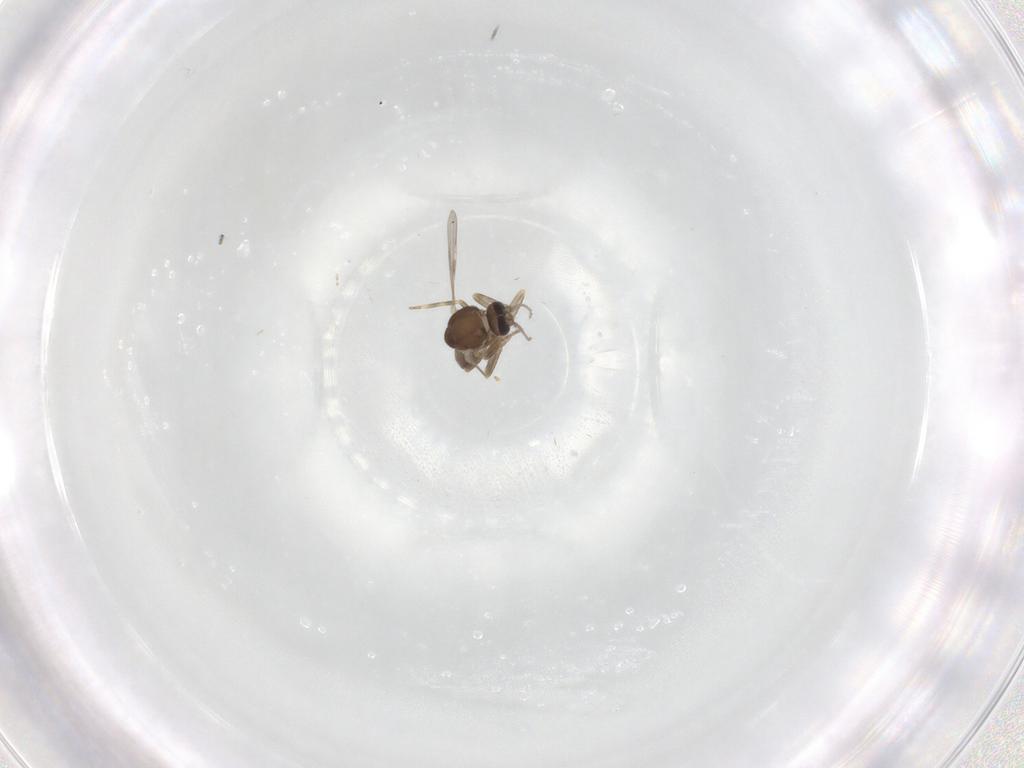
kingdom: Animalia
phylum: Arthropoda
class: Insecta
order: Diptera
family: Ceratopogonidae
